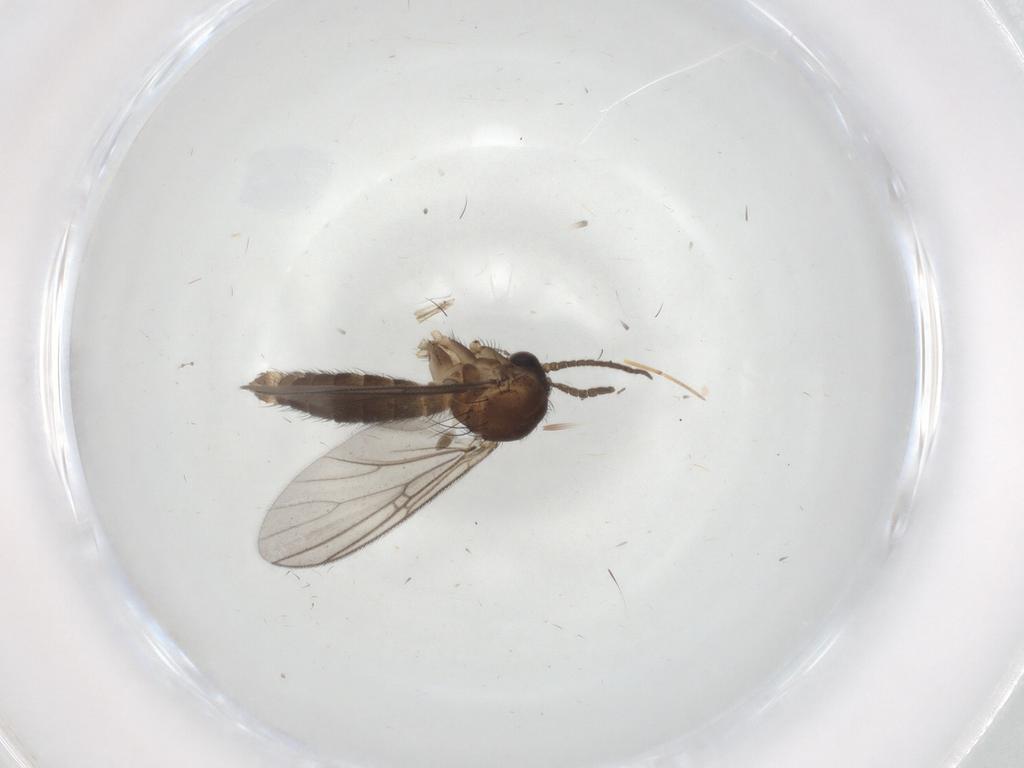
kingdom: Animalia
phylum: Arthropoda
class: Insecta
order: Diptera
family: Mycetophilidae
